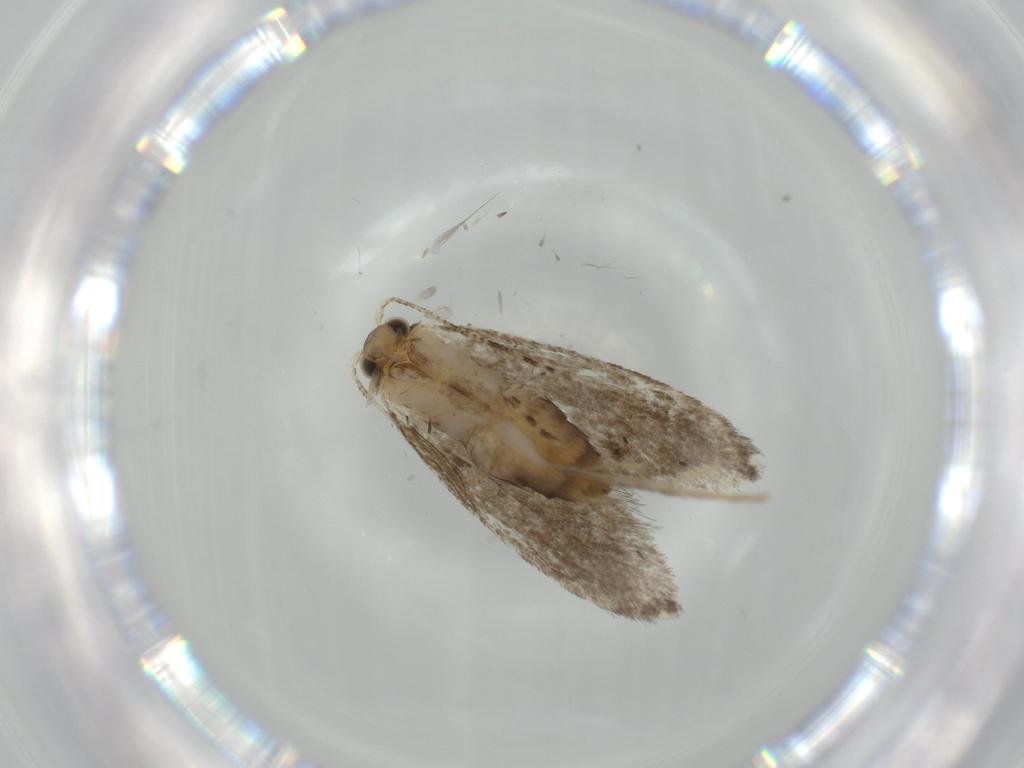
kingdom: Animalia
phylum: Arthropoda
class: Insecta
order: Lepidoptera
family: Tineidae
